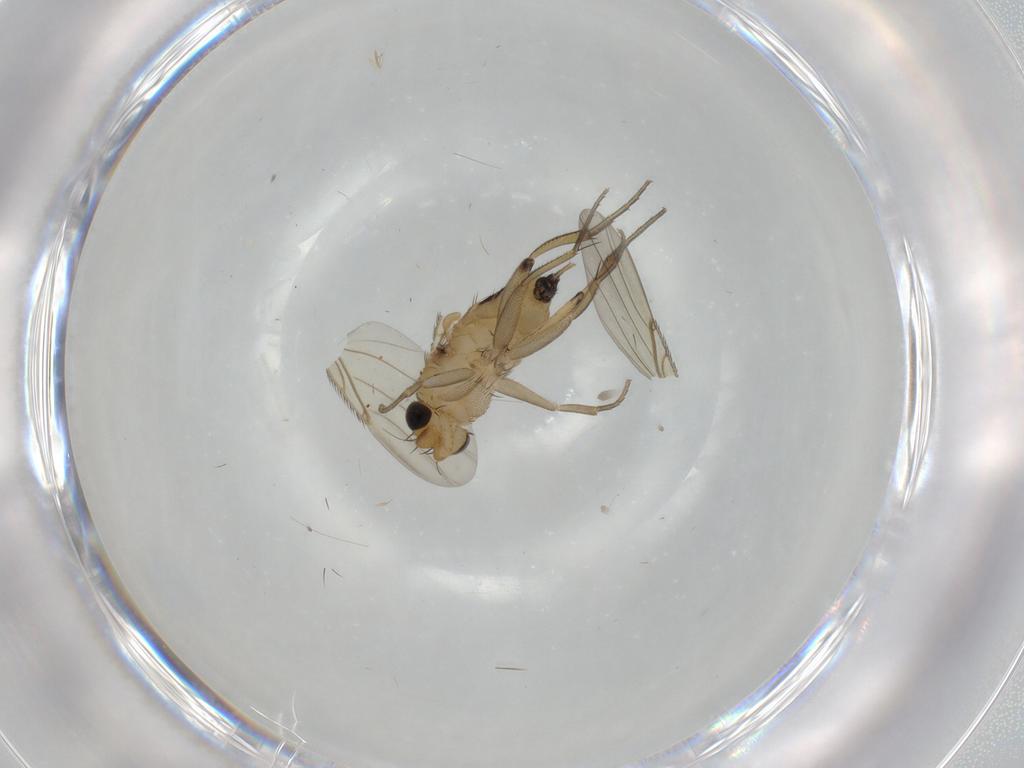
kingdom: Animalia
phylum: Arthropoda
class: Insecta
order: Diptera
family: Phoridae
